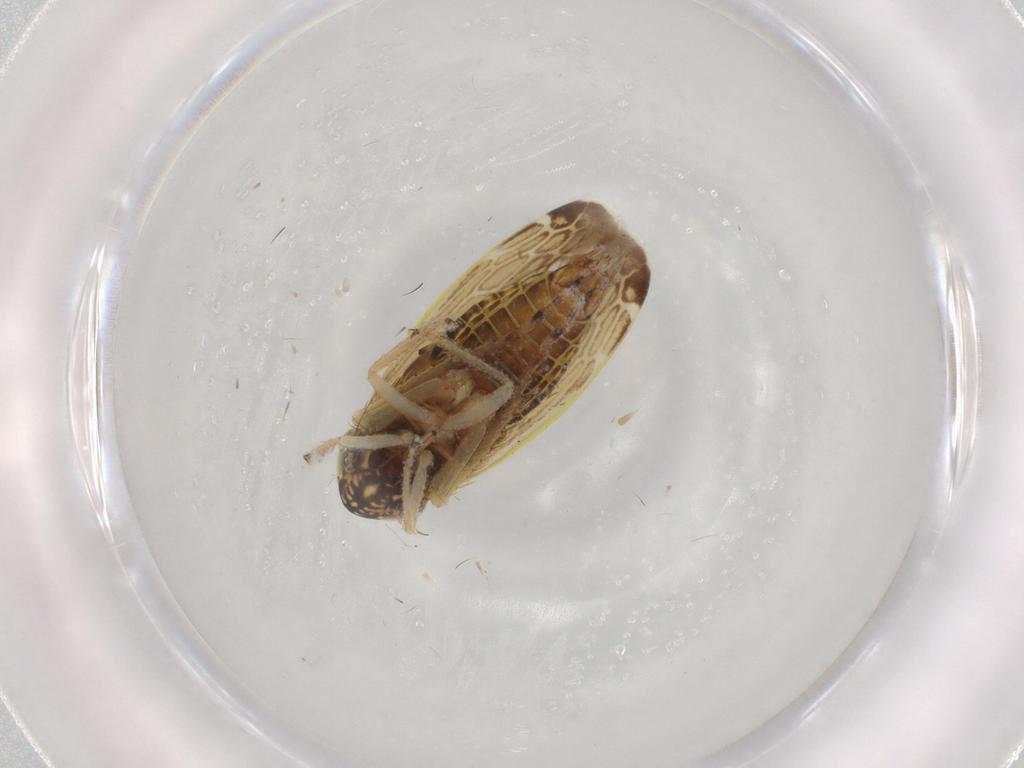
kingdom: Animalia
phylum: Arthropoda
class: Insecta
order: Hemiptera
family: Cicadellidae
